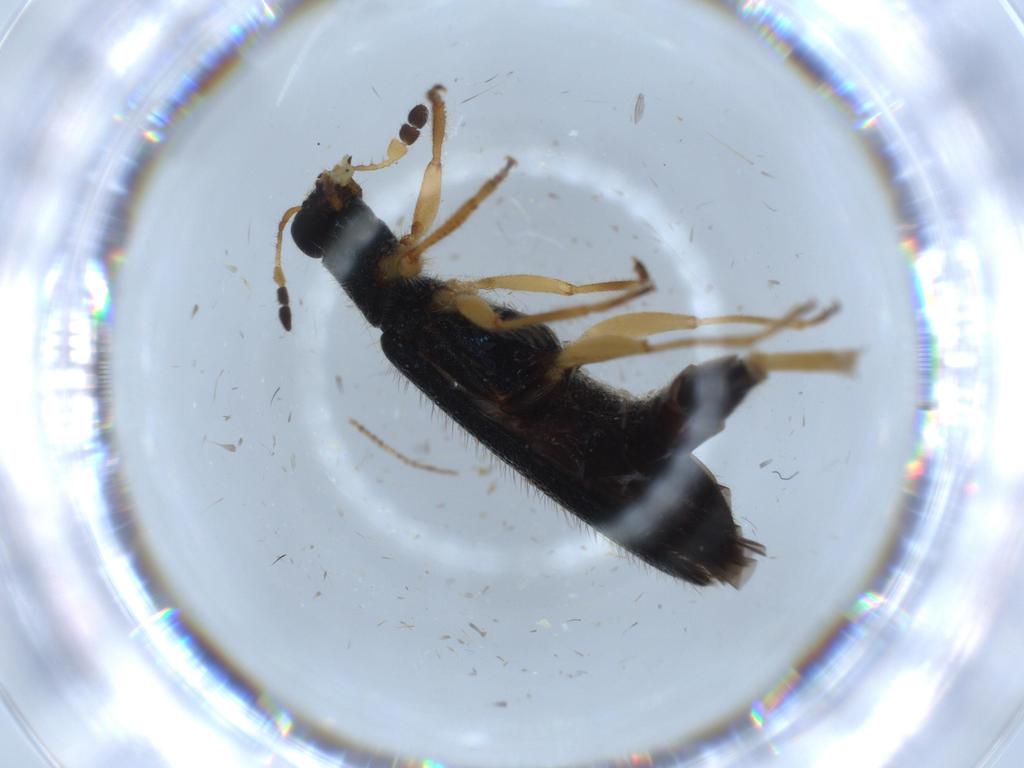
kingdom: Animalia
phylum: Arthropoda
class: Insecta
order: Coleoptera
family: Cleridae
